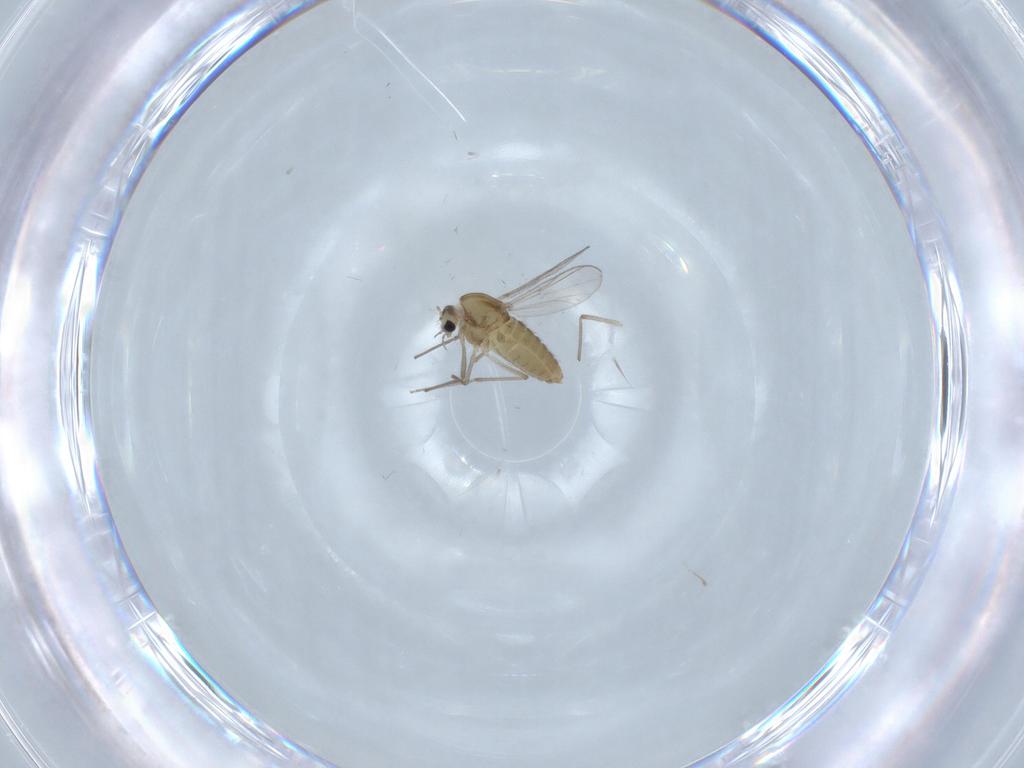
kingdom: Animalia
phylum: Arthropoda
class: Insecta
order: Diptera
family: Chironomidae
